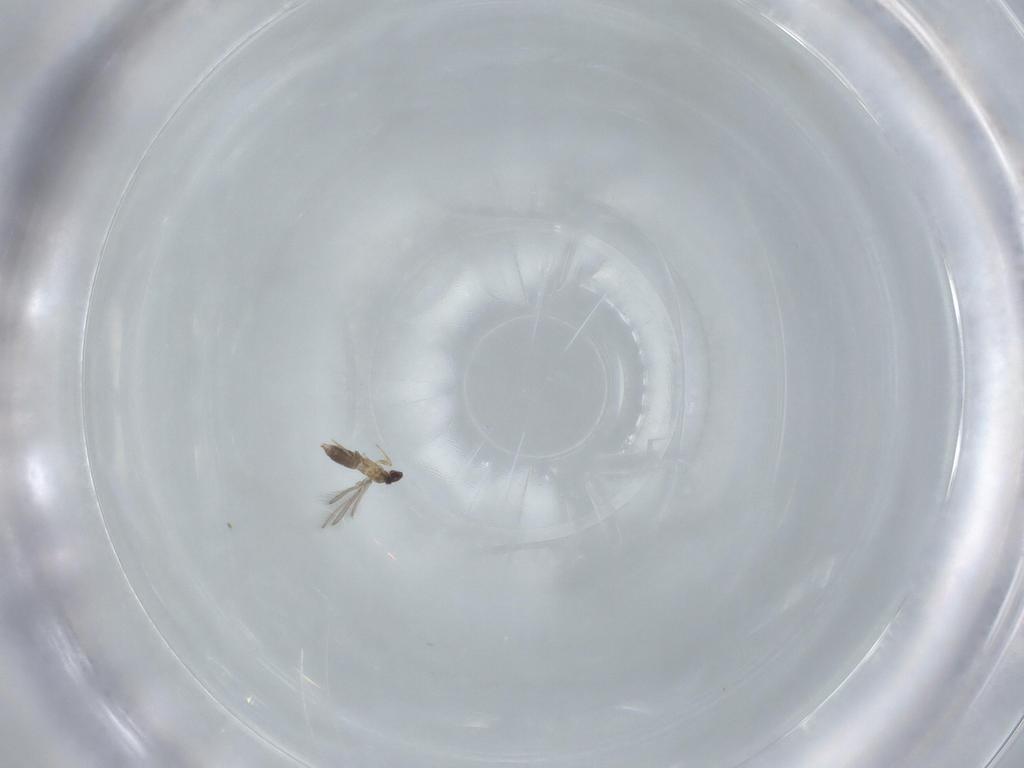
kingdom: Animalia
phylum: Arthropoda
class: Insecta
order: Hymenoptera
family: Mymaridae
